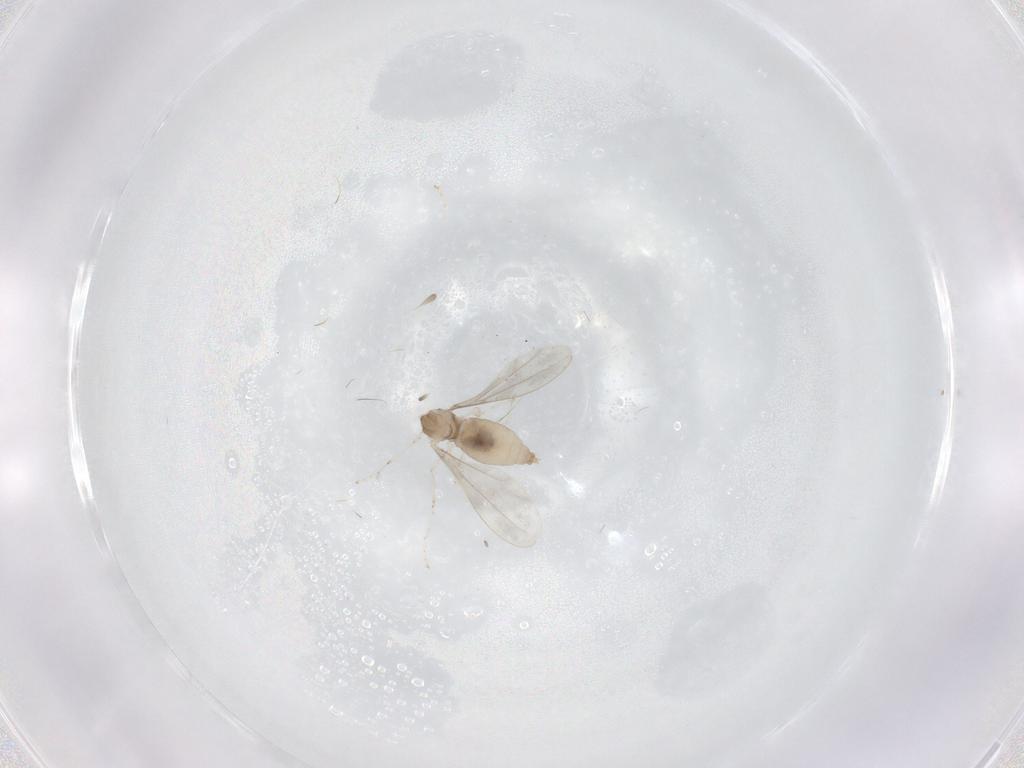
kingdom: Animalia
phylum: Arthropoda
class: Insecta
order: Diptera
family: Cecidomyiidae
